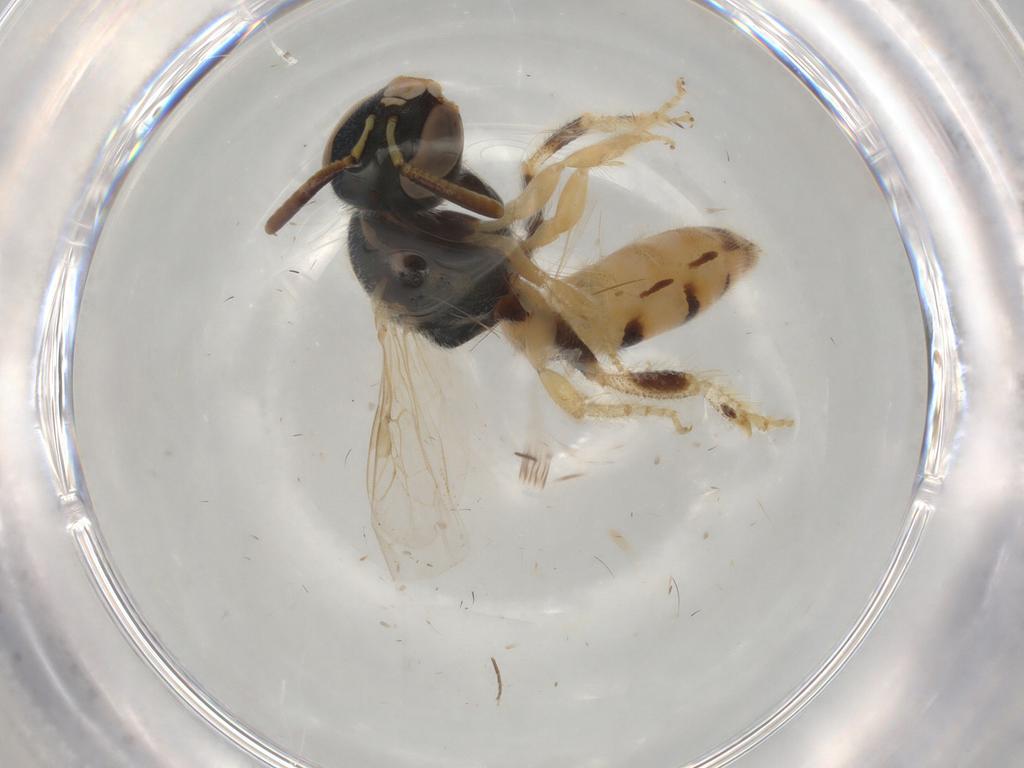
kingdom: Animalia
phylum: Arthropoda
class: Insecta
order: Hymenoptera
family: Halictidae
